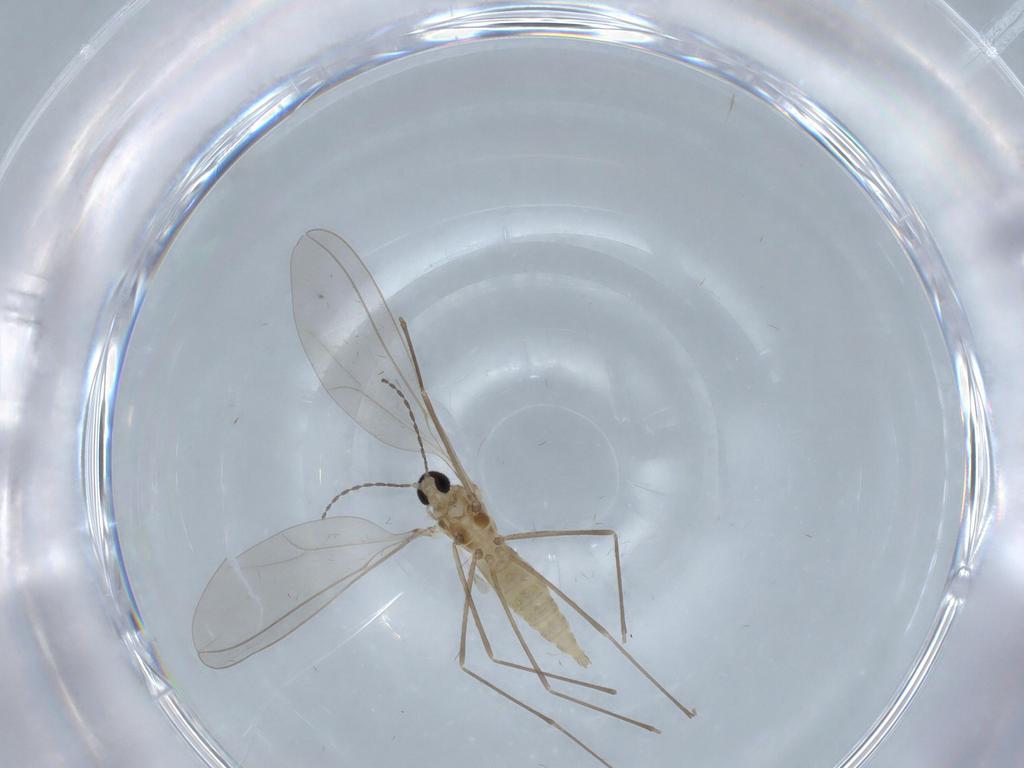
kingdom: Animalia
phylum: Arthropoda
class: Insecta
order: Diptera
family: Cecidomyiidae
